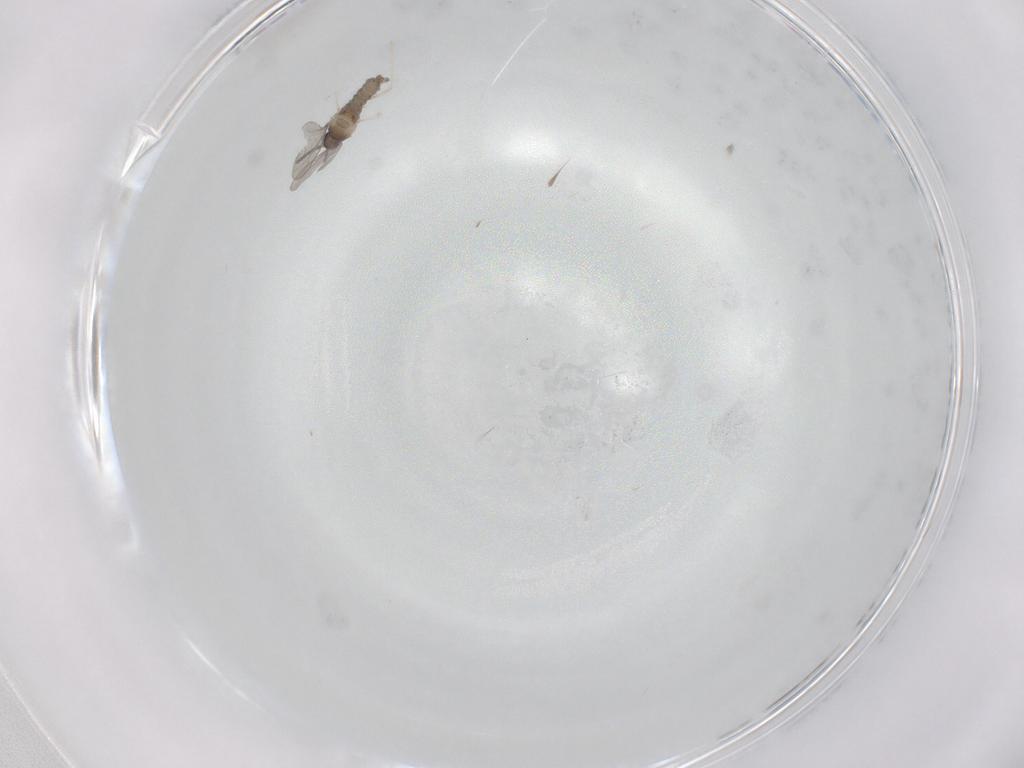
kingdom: Animalia
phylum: Arthropoda
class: Insecta
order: Diptera
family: Chironomidae
